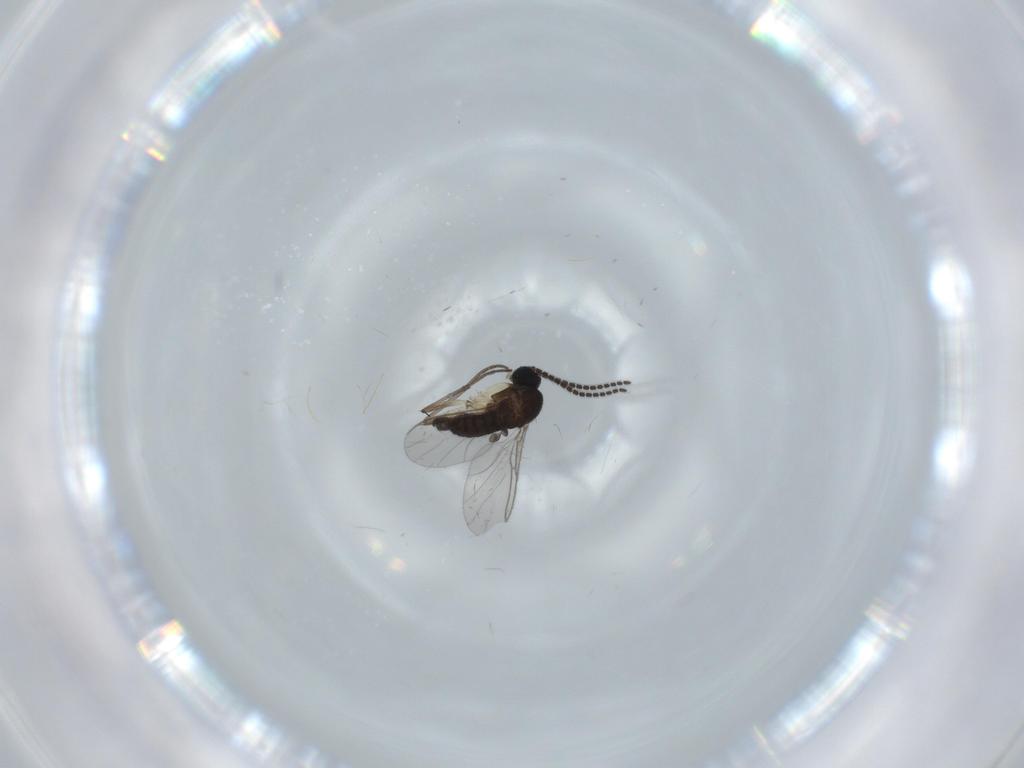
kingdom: Animalia
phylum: Arthropoda
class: Insecta
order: Diptera
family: Sciaridae
